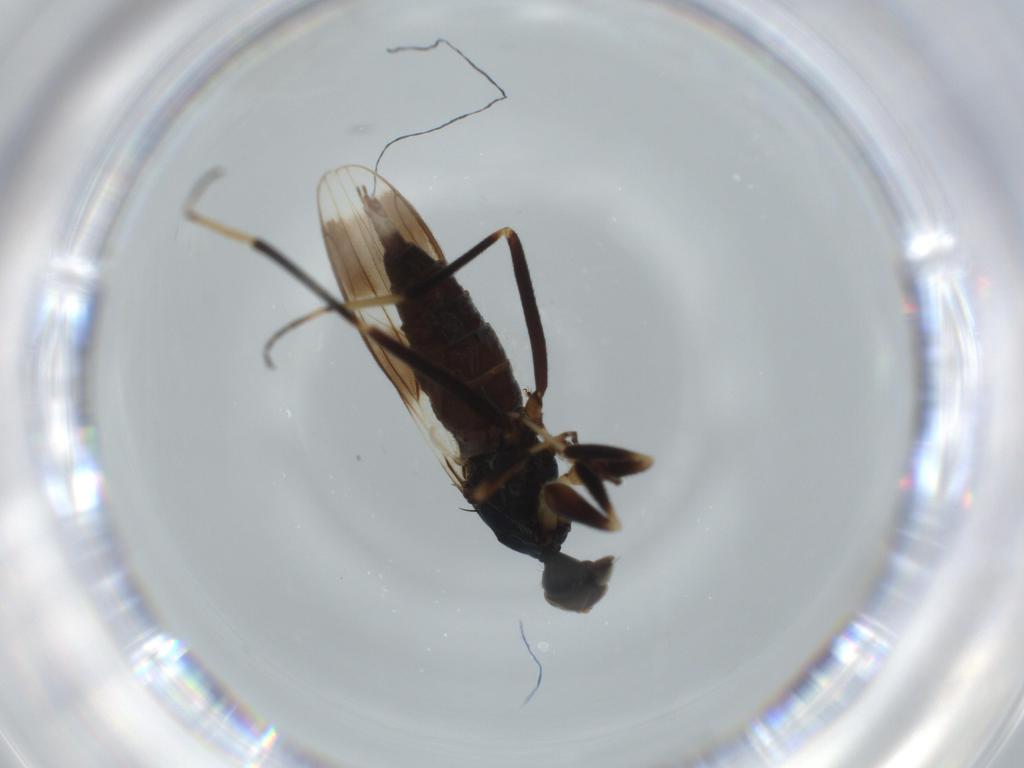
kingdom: Animalia
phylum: Arthropoda
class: Insecta
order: Diptera
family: Hybotidae
